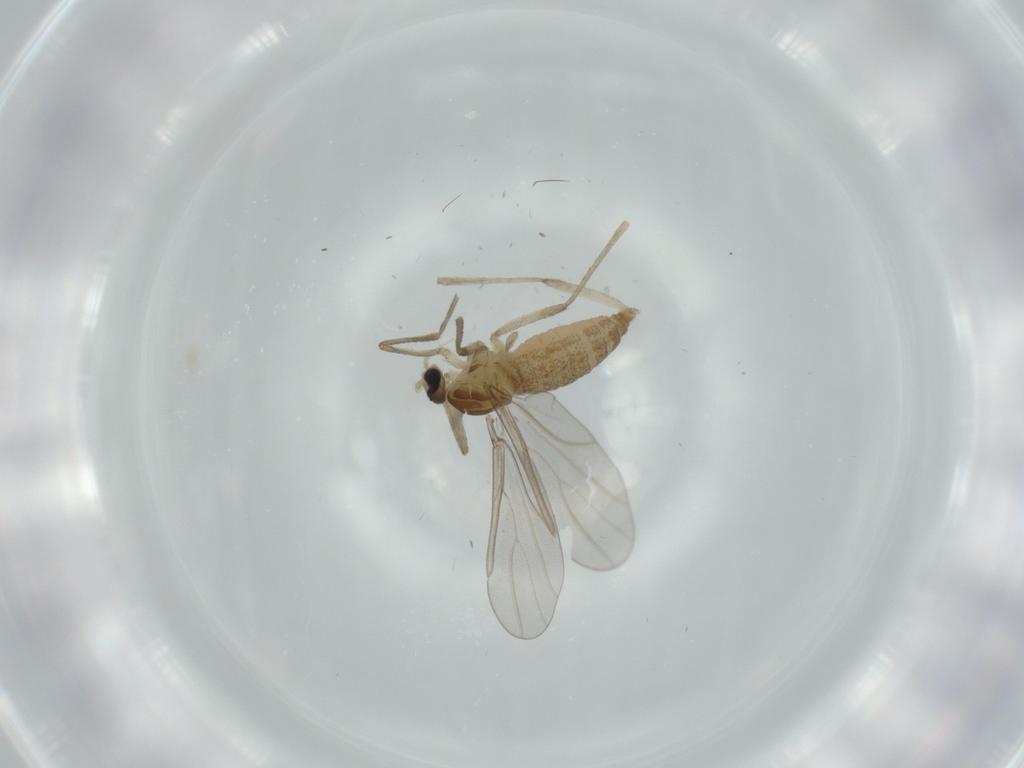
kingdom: Animalia
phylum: Arthropoda
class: Insecta
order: Diptera
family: Cecidomyiidae
